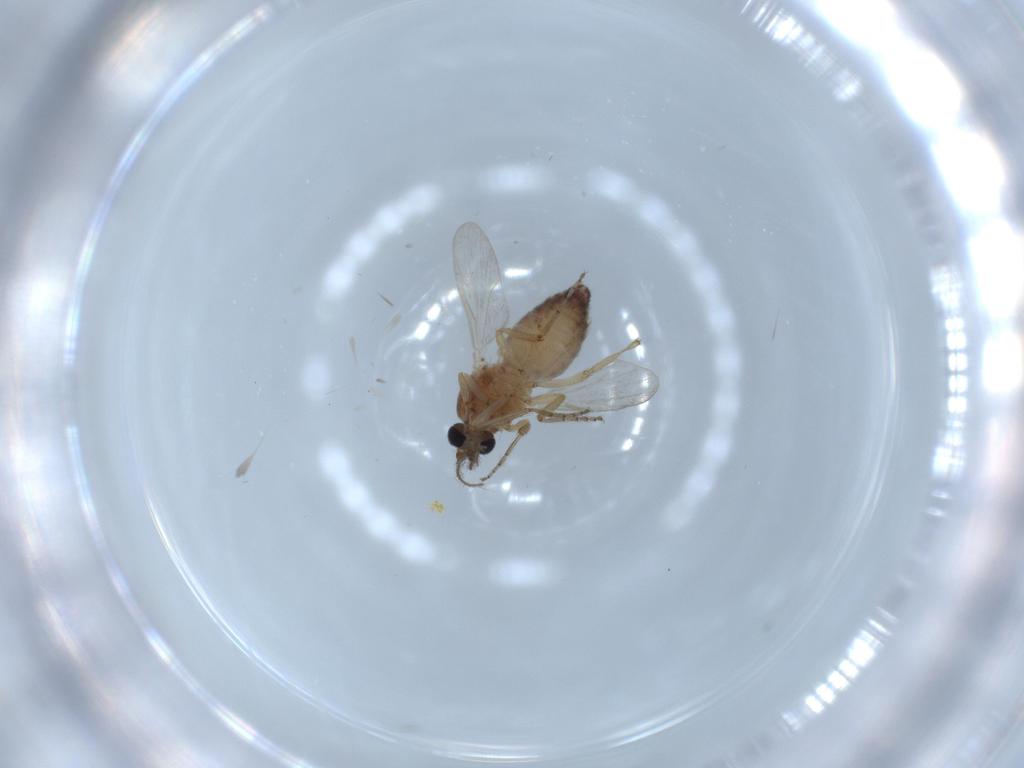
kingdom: Animalia
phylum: Arthropoda
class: Insecta
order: Diptera
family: Ceratopogonidae
